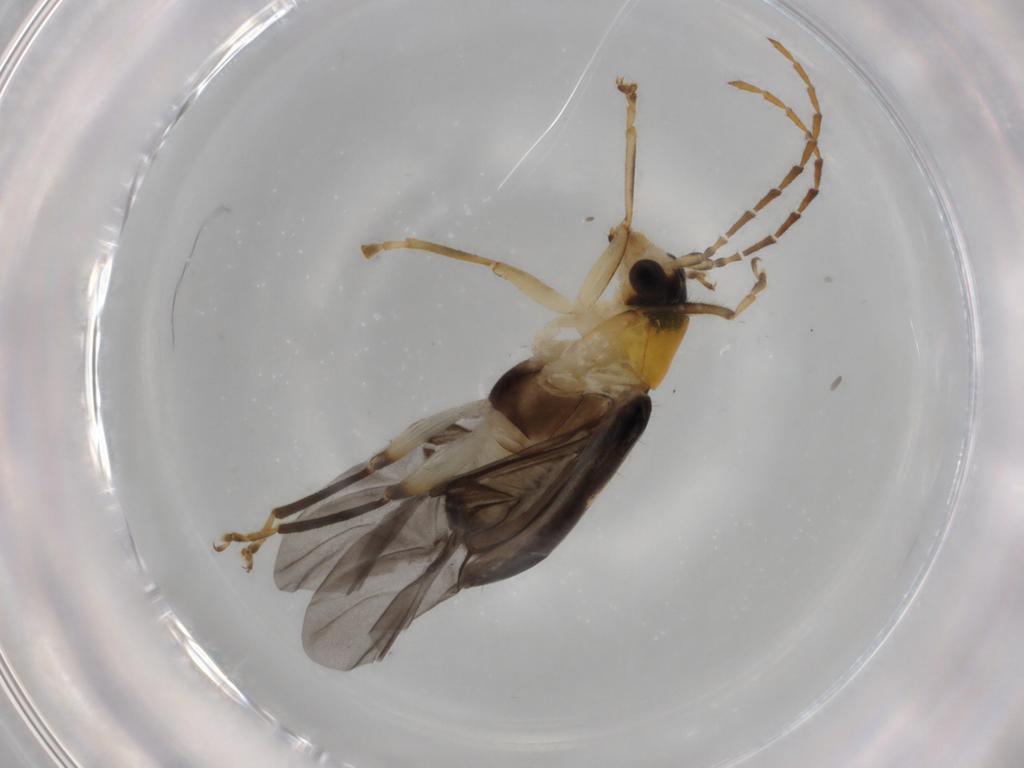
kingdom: Animalia
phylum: Arthropoda
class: Insecta
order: Coleoptera
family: Chrysomelidae
